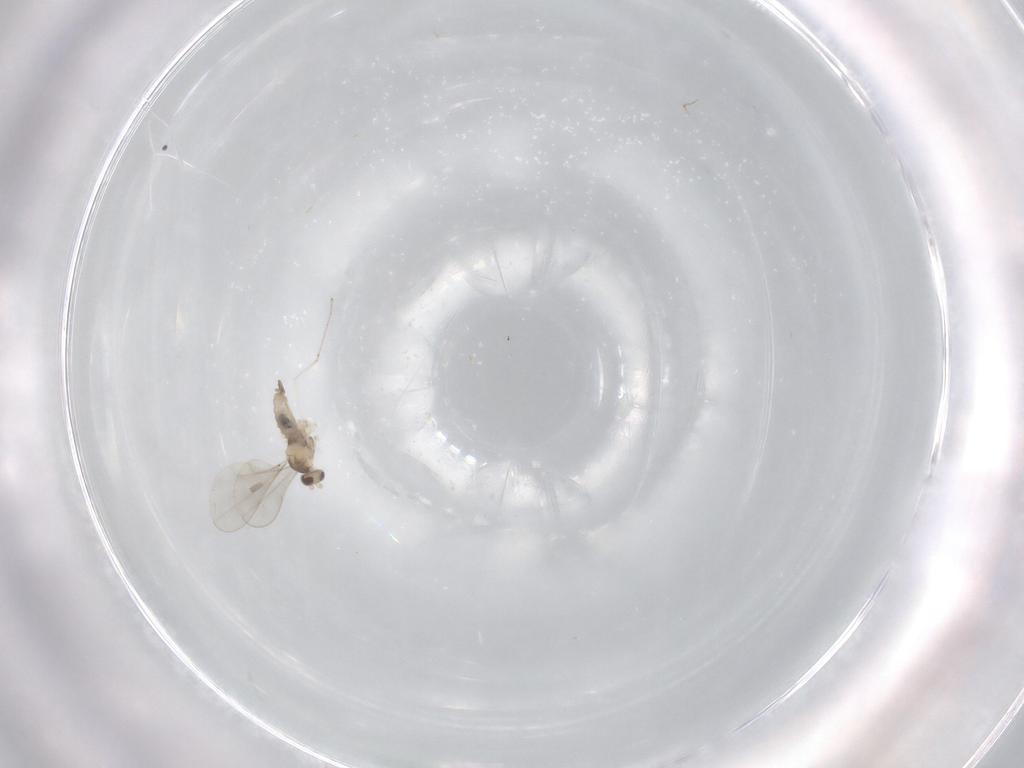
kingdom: Animalia
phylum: Arthropoda
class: Insecta
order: Diptera
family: Cecidomyiidae
